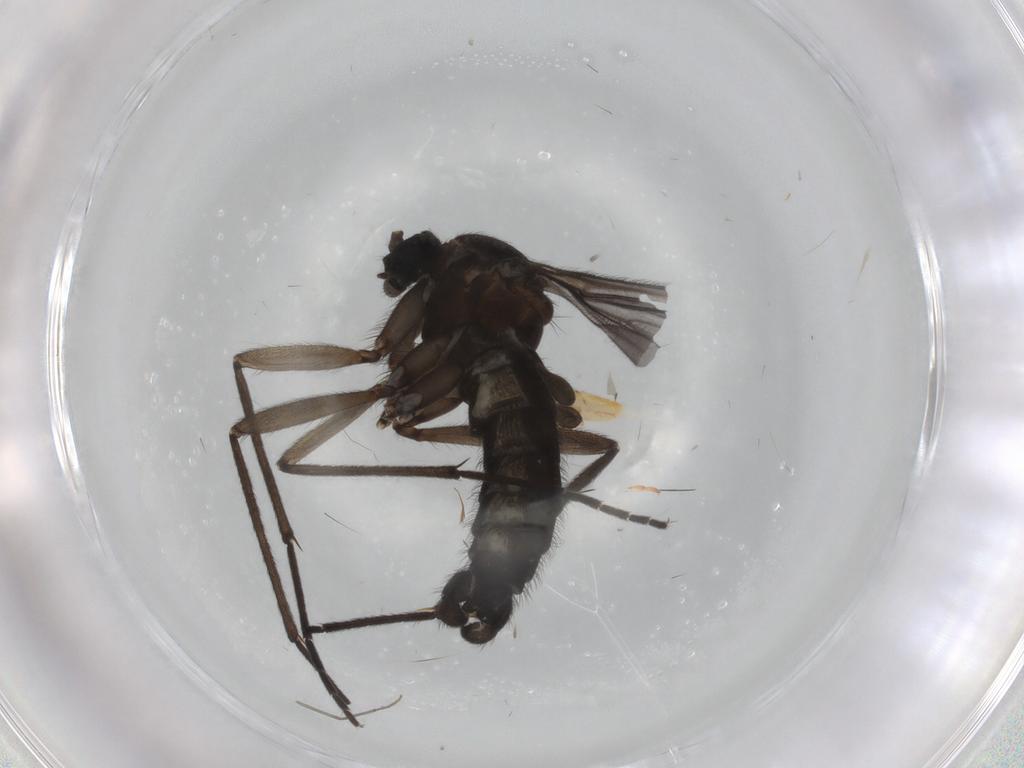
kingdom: Animalia
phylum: Arthropoda
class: Insecta
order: Diptera
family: Sciaridae
